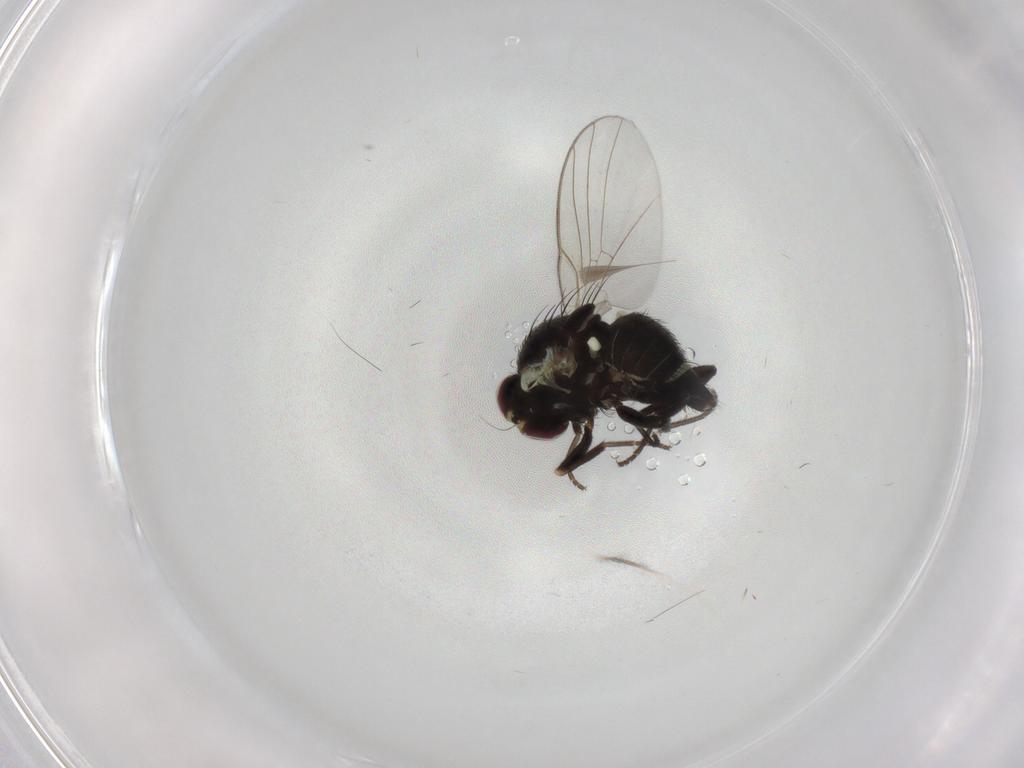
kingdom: Animalia
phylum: Arthropoda
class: Insecta
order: Diptera
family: Agromyzidae
